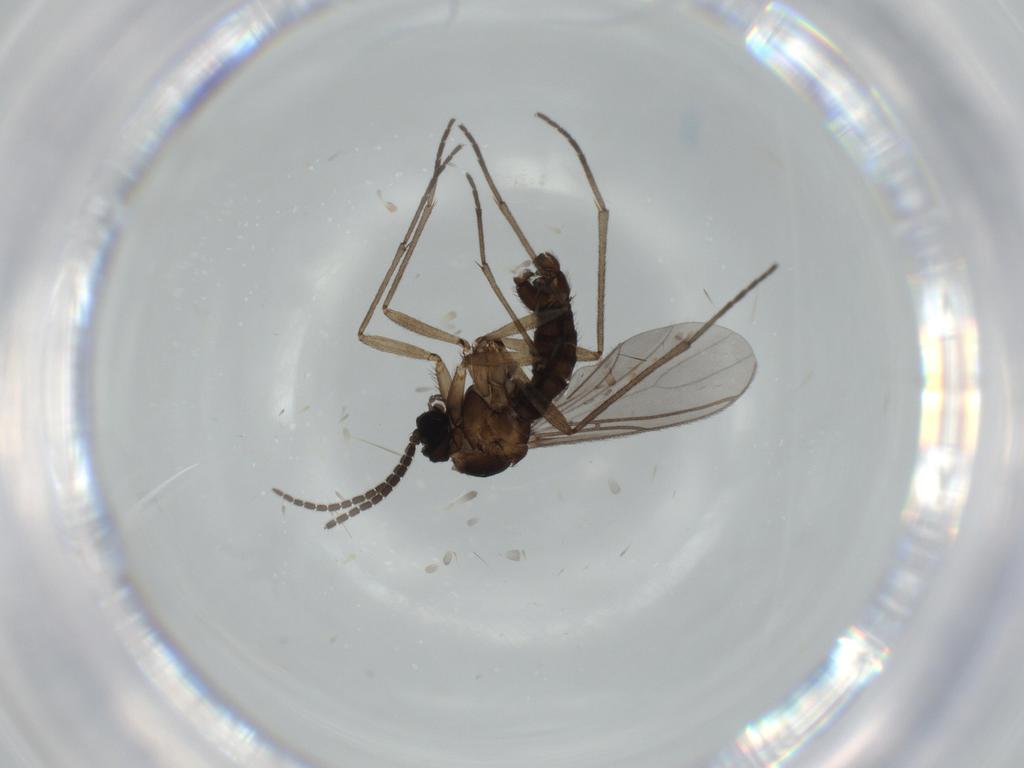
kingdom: Animalia
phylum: Arthropoda
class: Insecta
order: Diptera
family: Sciaridae
